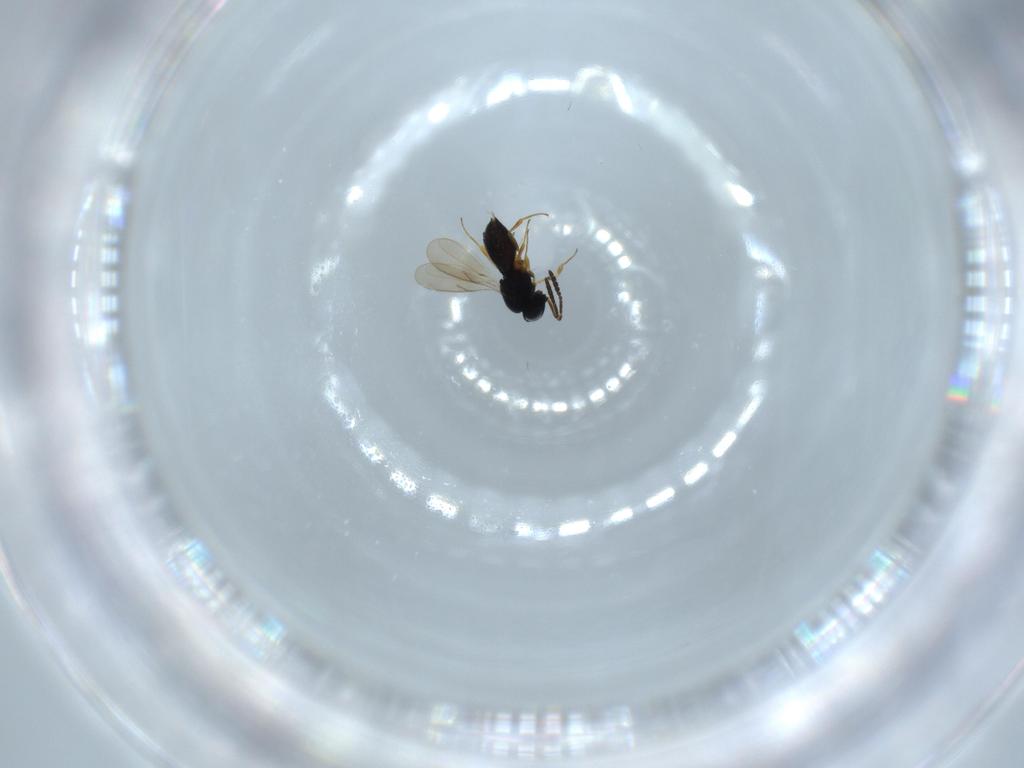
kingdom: Animalia
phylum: Arthropoda
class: Insecta
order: Hymenoptera
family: Scelionidae
